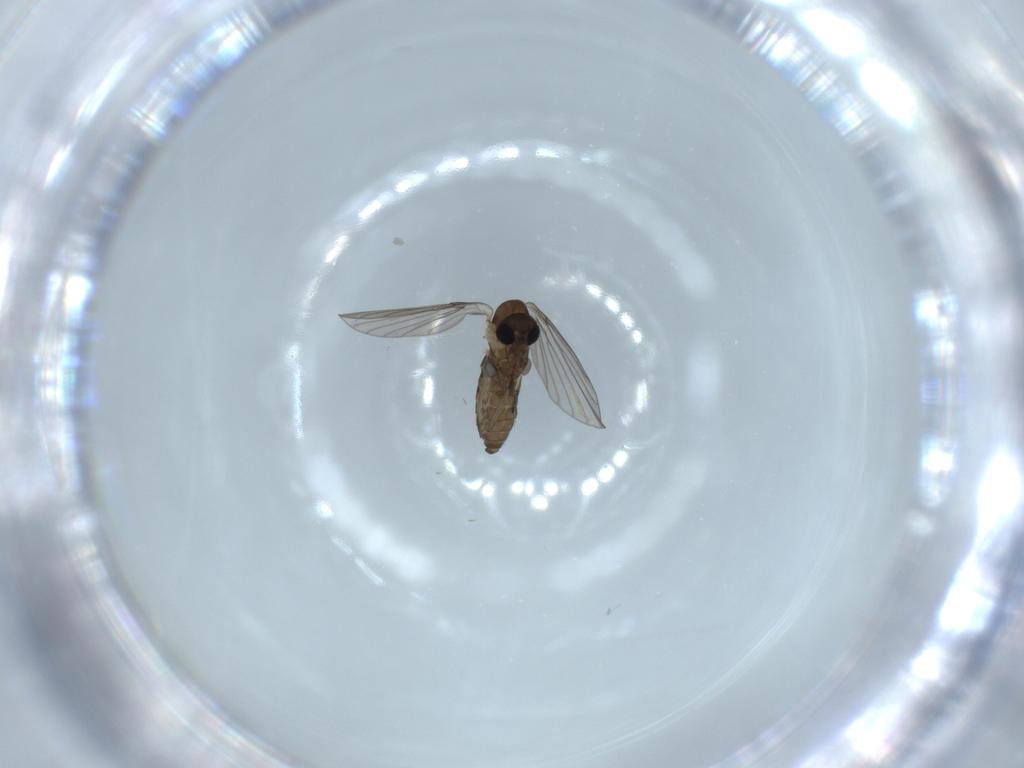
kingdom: Animalia
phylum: Arthropoda
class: Insecta
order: Diptera
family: Psychodidae
